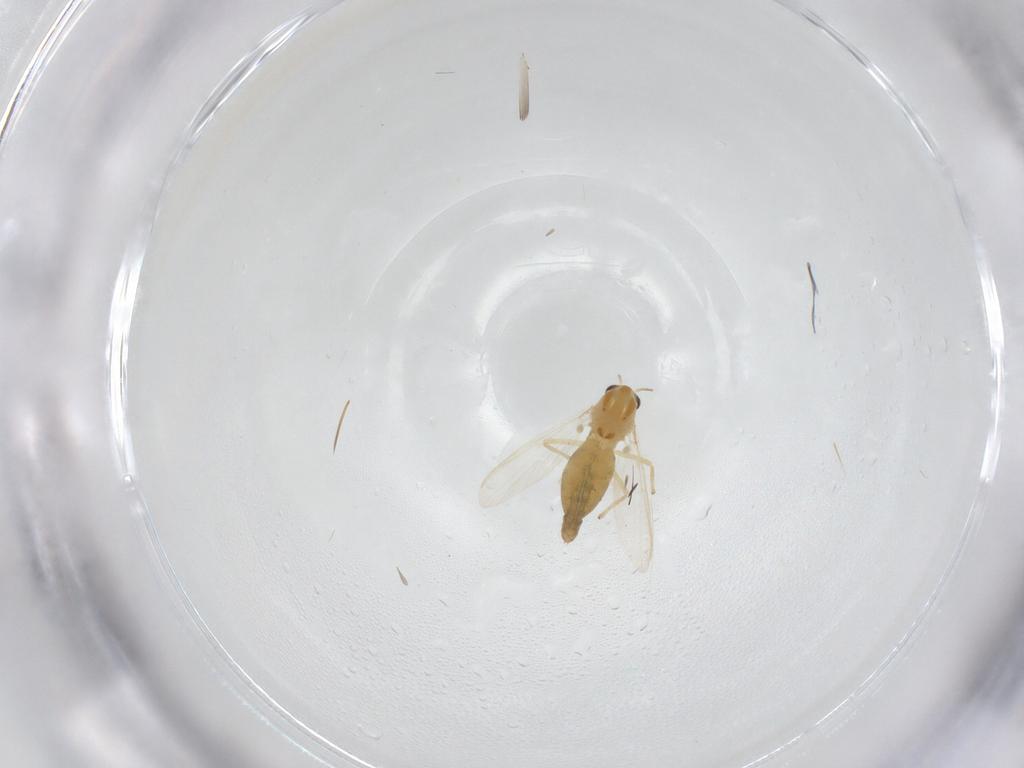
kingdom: Animalia
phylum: Arthropoda
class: Insecta
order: Diptera
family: Chironomidae
